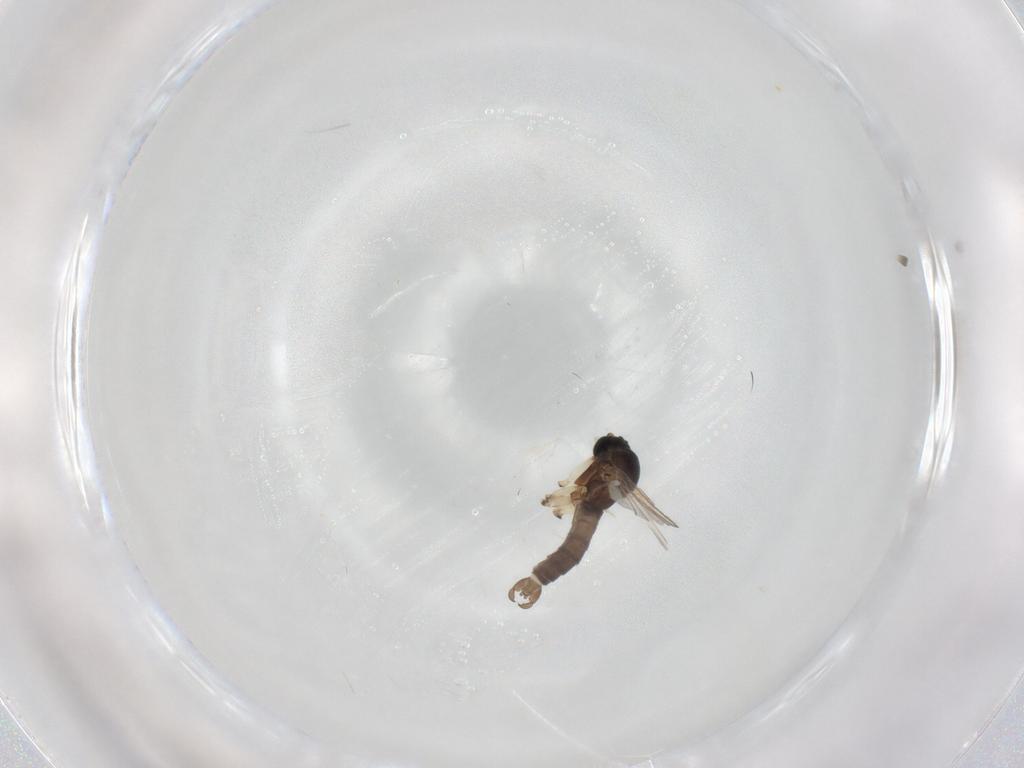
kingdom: Animalia
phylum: Arthropoda
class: Insecta
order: Diptera
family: Sciaridae
